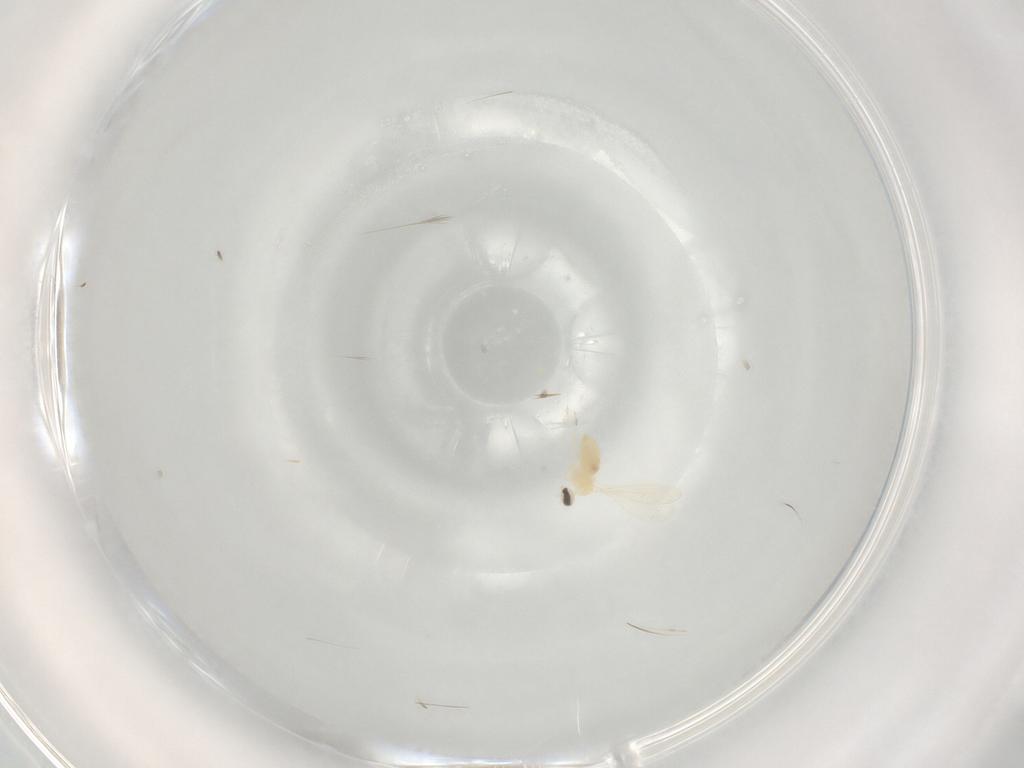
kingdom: Animalia
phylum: Arthropoda
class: Insecta
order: Diptera
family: Cecidomyiidae
